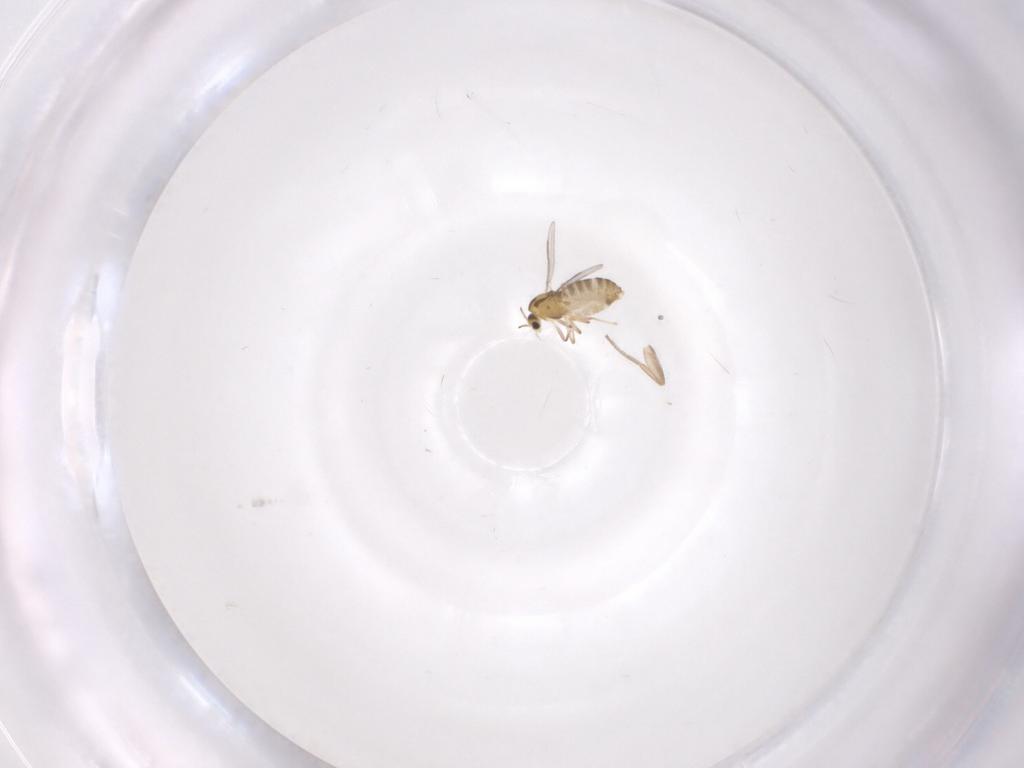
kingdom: Animalia
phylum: Arthropoda
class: Insecta
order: Diptera
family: Chironomidae
